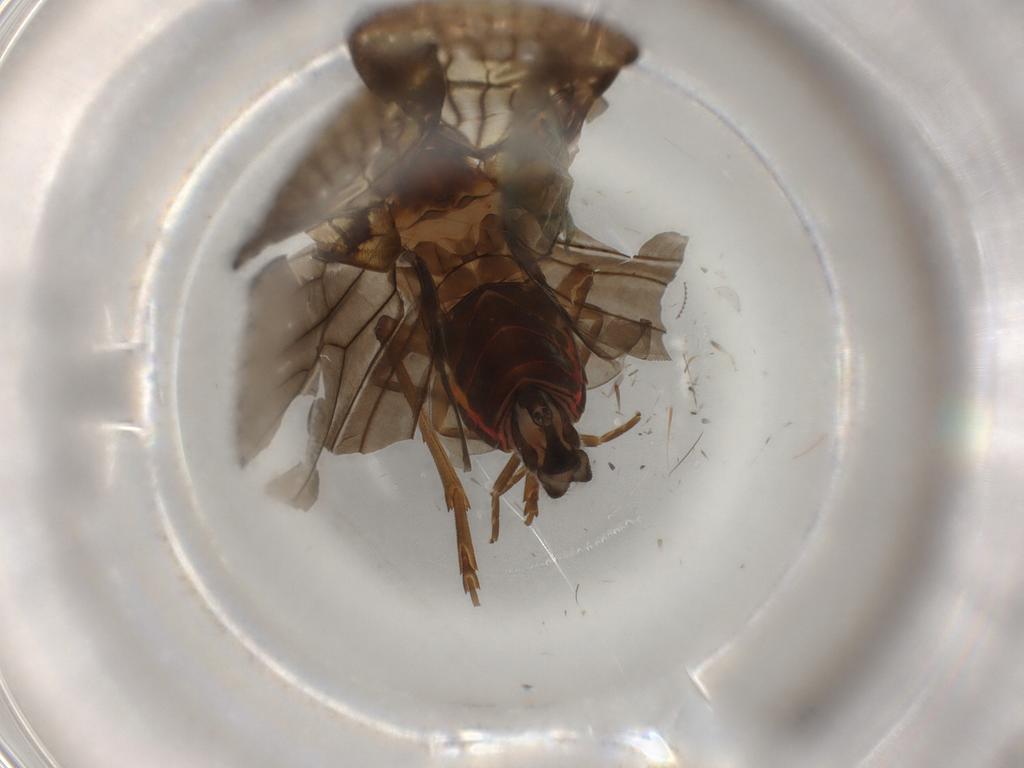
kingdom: Animalia
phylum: Arthropoda
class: Insecta
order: Hemiptera
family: Cixiidae
